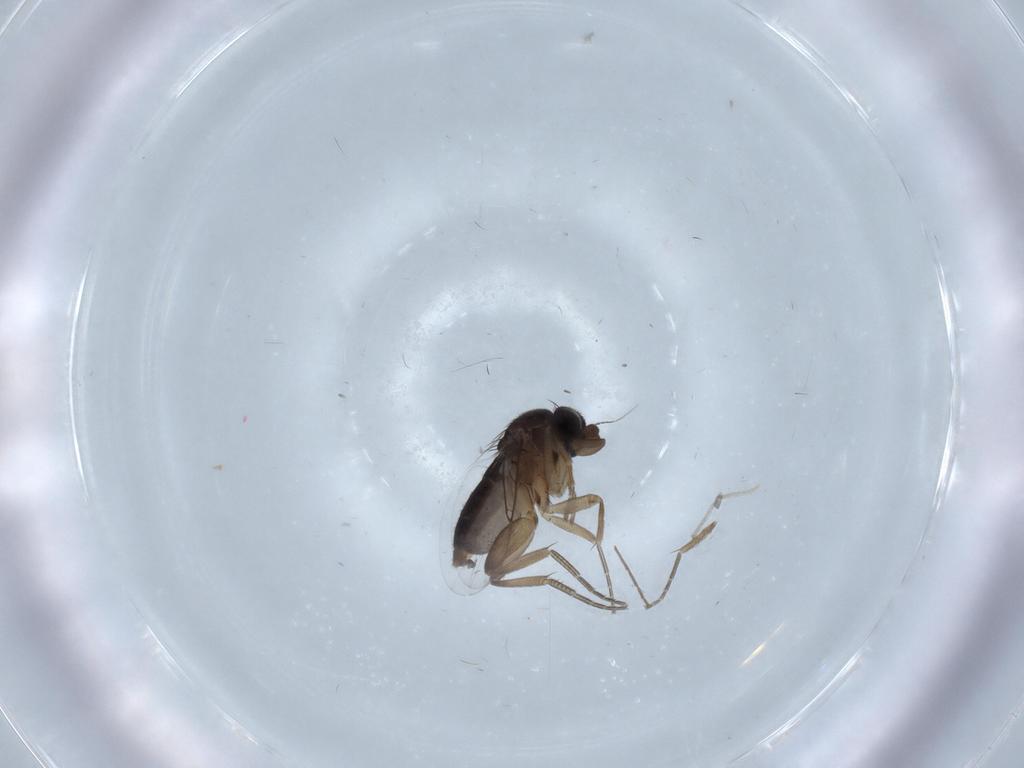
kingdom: Animalia
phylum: Arthropoda
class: Insecta
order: Diptera
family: Phoridae
